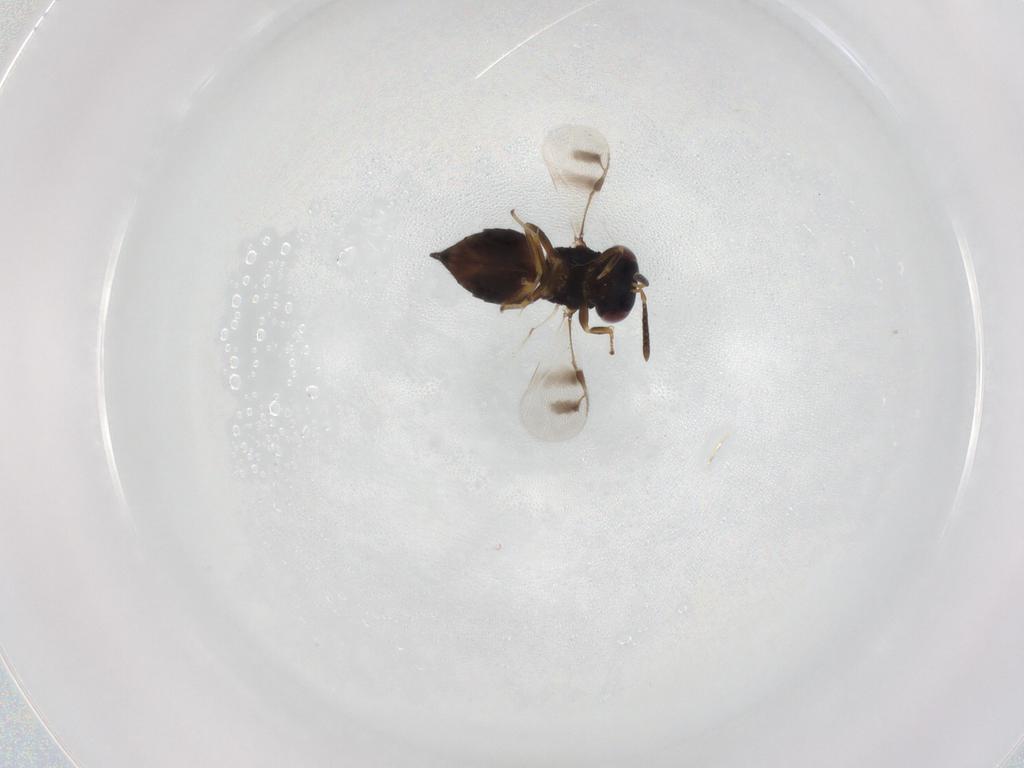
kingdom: Animalia
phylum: Arthropoda
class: Insecta
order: Hymenoptera
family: Pteromalidae
